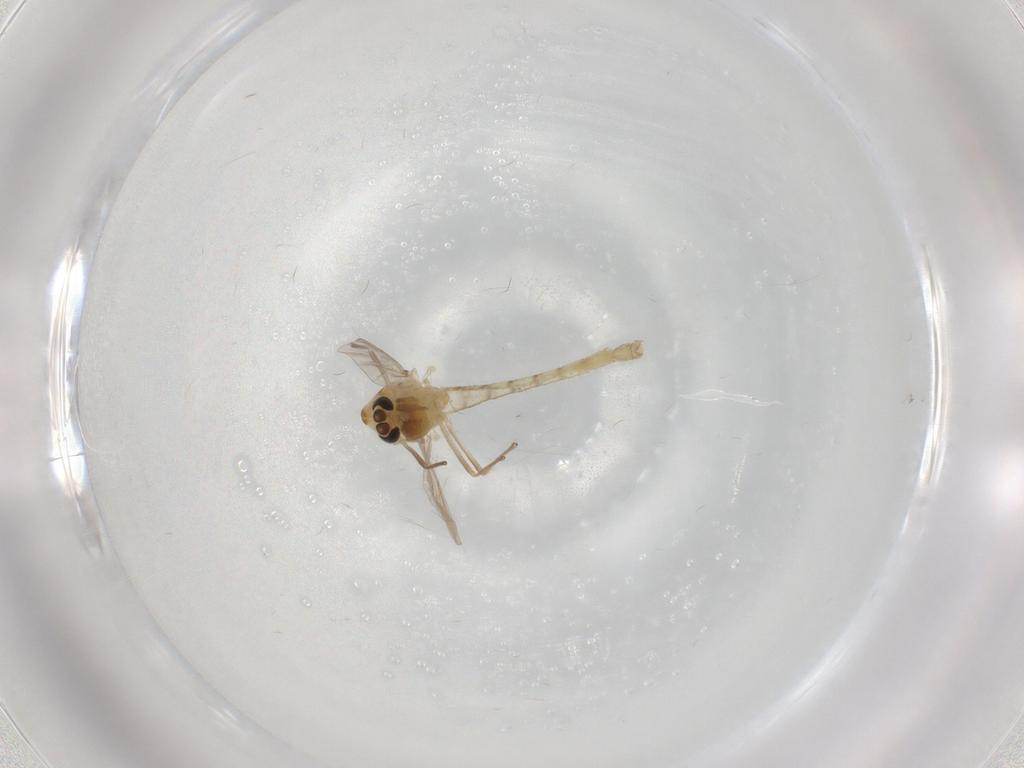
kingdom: Animalia
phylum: Arthropoda
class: Insecta
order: Diptera
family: Chironomidae
